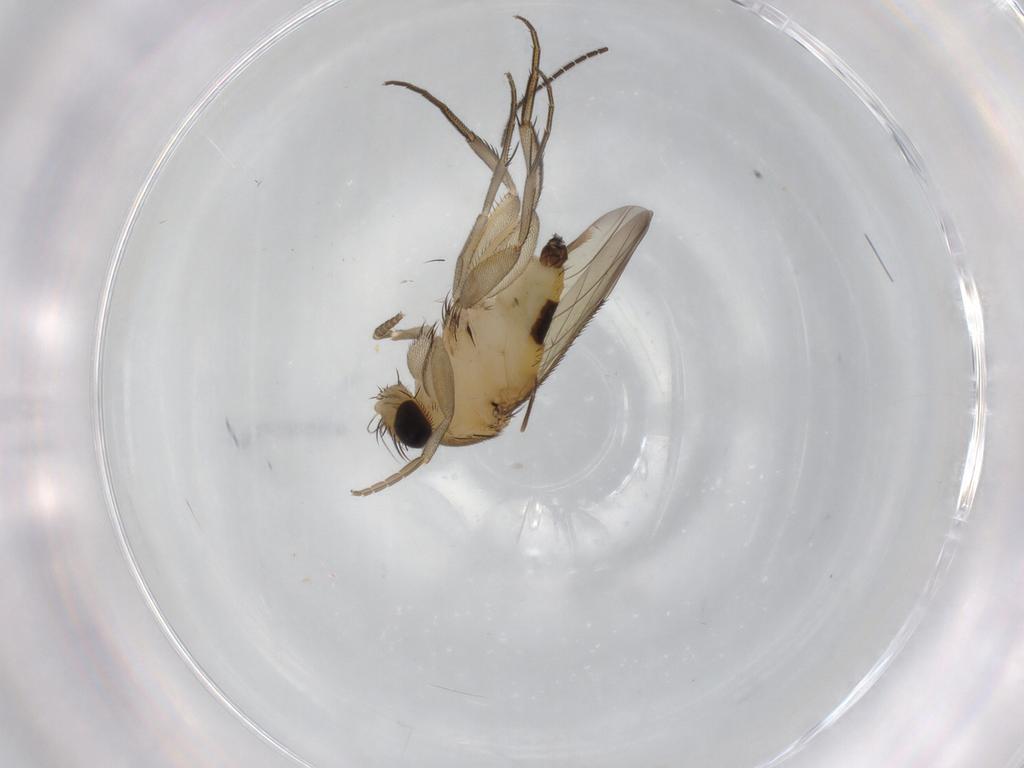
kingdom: Animalia
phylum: Arthropoda
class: Insecta
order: Diptera
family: Phoridae
